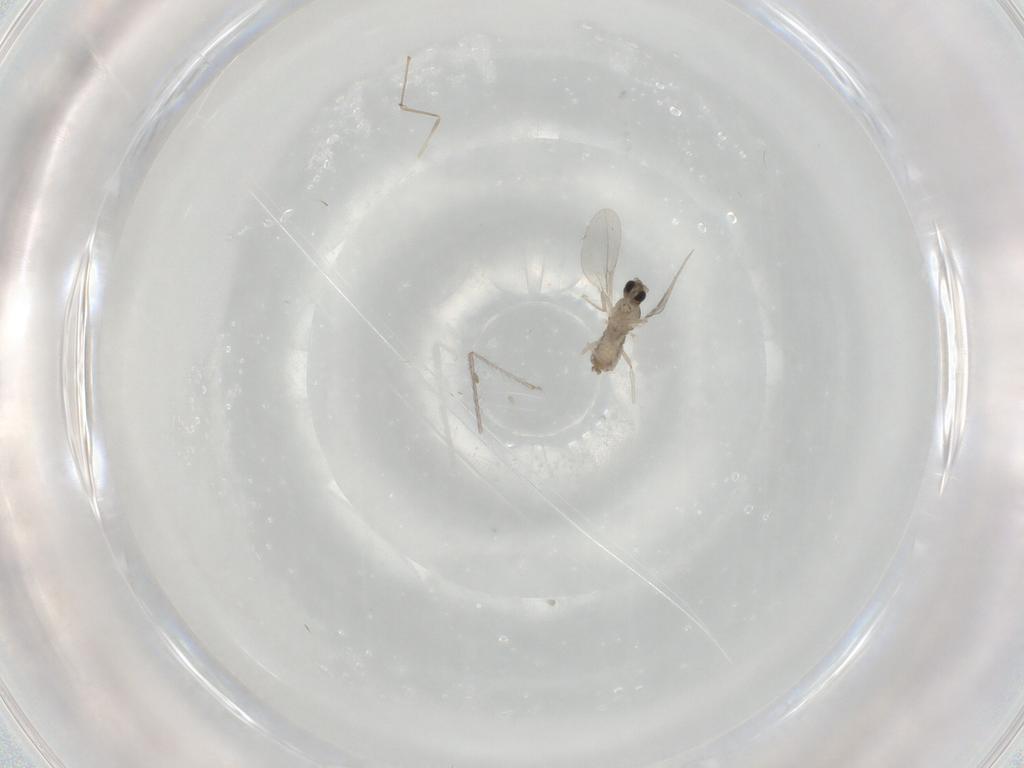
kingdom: Animalia
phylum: Arthropoda
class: Insecta
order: Diptera
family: Cecidomyiidae
